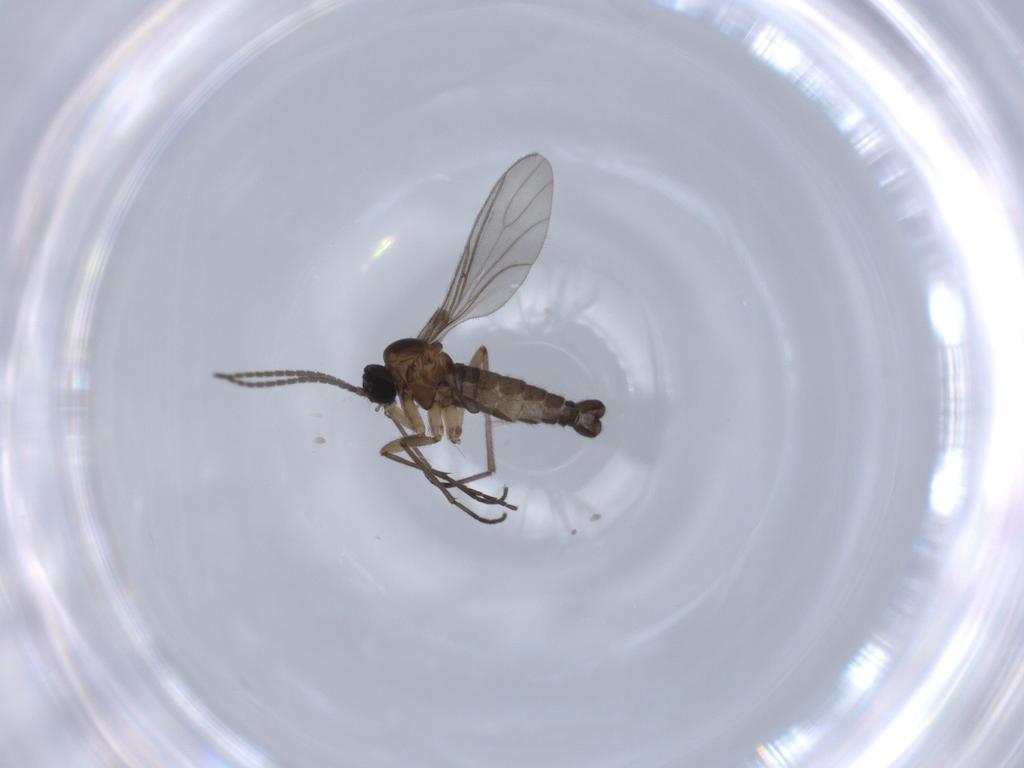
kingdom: Animalia
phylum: Arthropoda
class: Insecta
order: Diptera
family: Sciaridae
